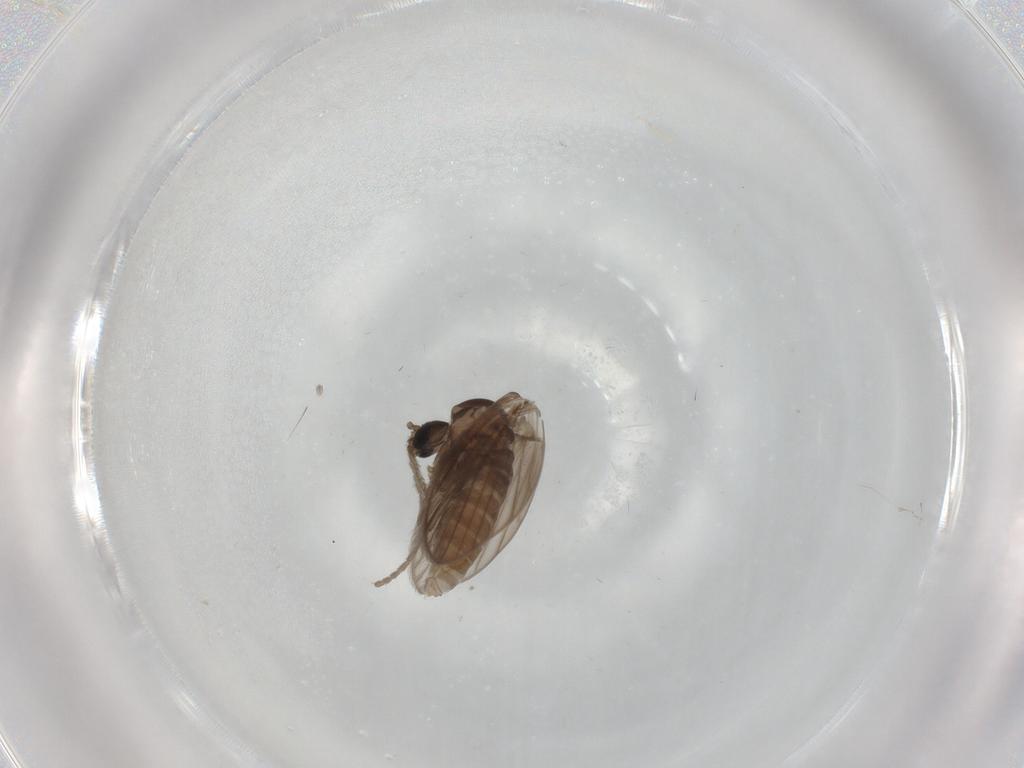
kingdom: Animalia
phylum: Arthropoda
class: Insecta
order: Diptera
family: Psychodidae
